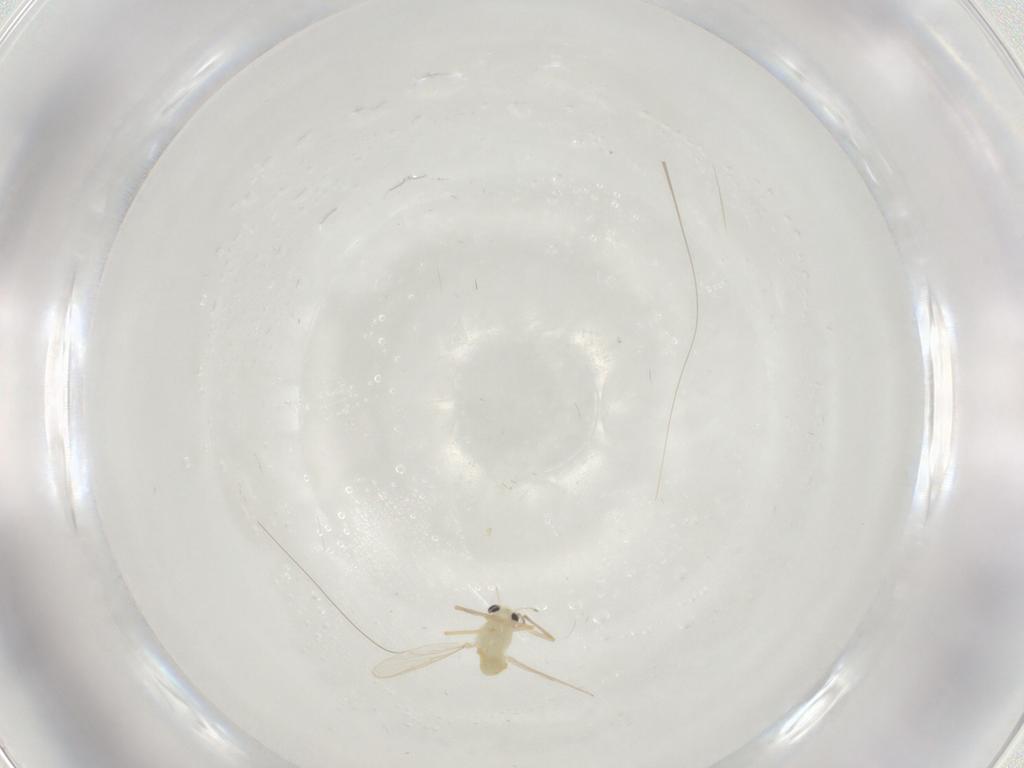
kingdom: Animalia
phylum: Arthropoda
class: Insecta
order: Diptera
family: Chironomidae
